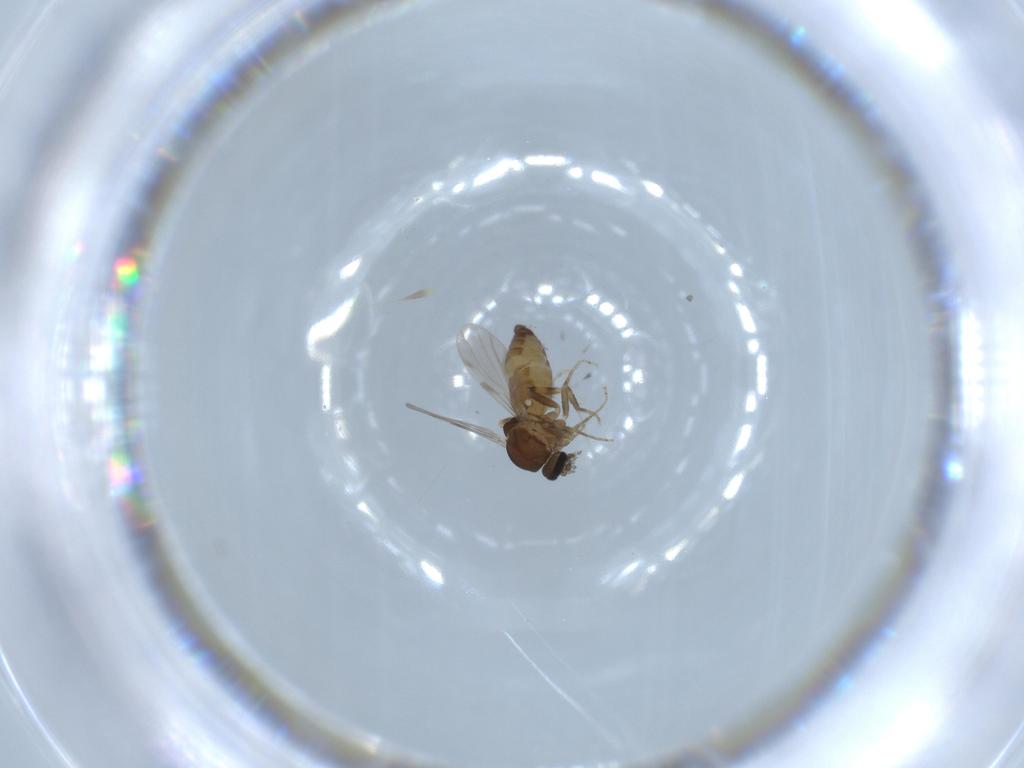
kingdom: Animalia
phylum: Arthropoda
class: Insecta
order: Diptera
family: Ceratopogonidae
